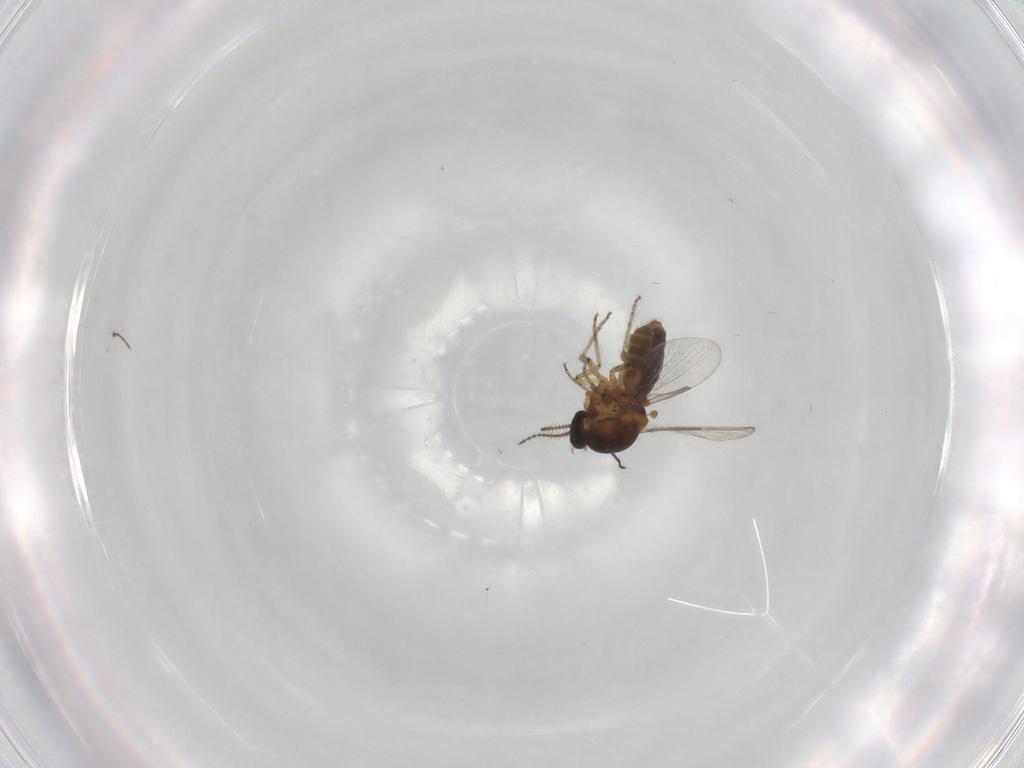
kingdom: Animalia
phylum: Arthropoda
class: Insecta
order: Diptera
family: Ceratopogonidae
